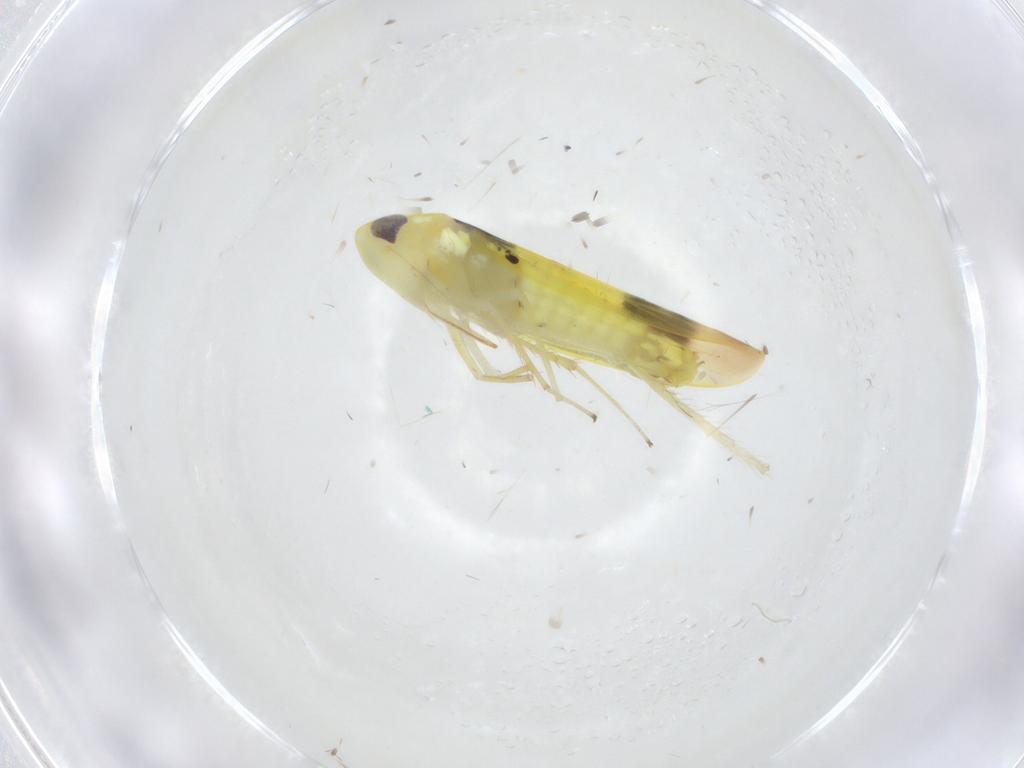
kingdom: Animalia
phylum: Arthropoda
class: Insecta
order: Hemiptera
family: Cicadellidae
